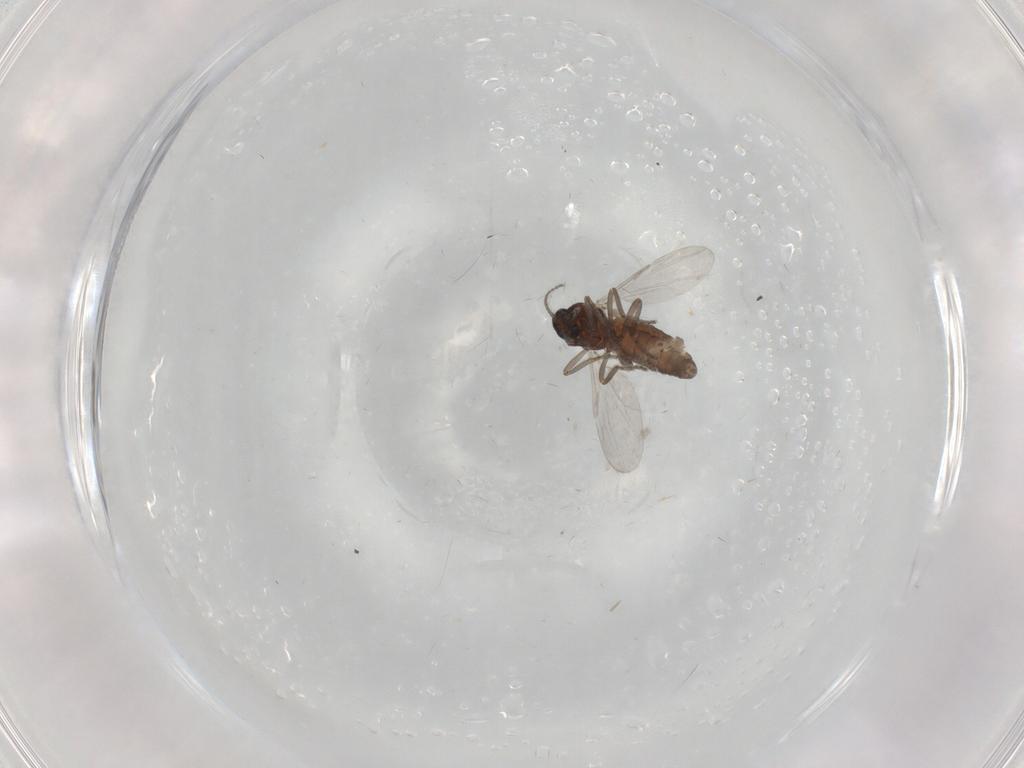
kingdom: Animalia
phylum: Arthropoda
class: Insecta
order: Diptera
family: Ceratopogonidae
